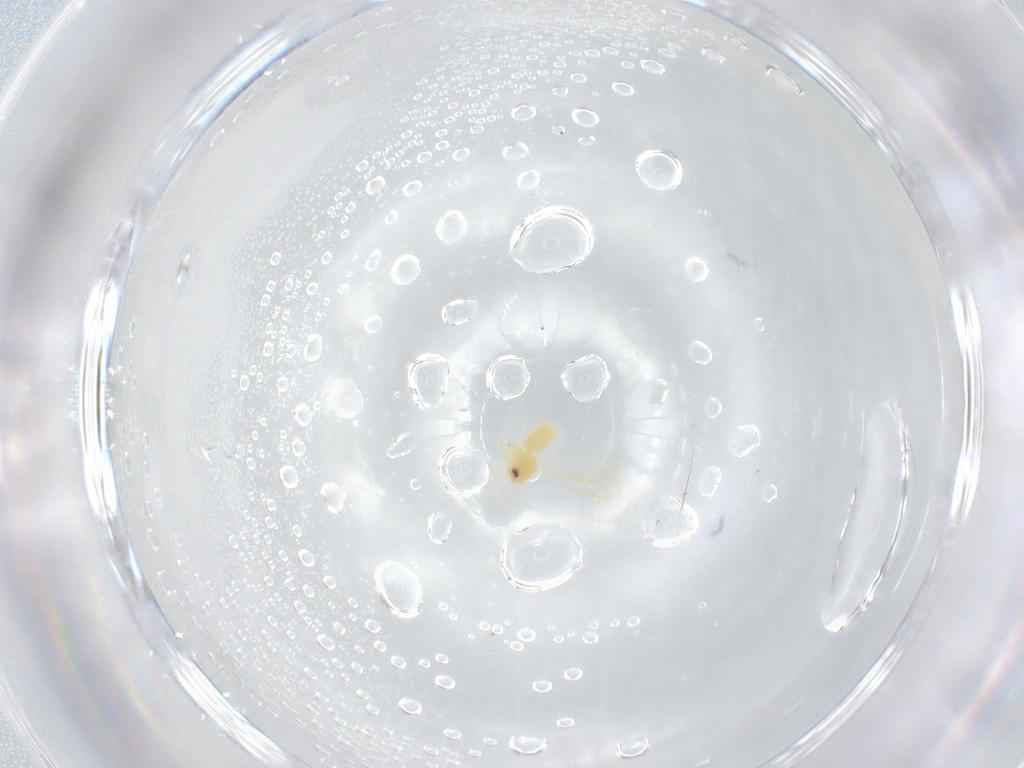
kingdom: Animalia
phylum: Arthropoda
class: Insecta
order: Hemiptera
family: Aleyrodidae
